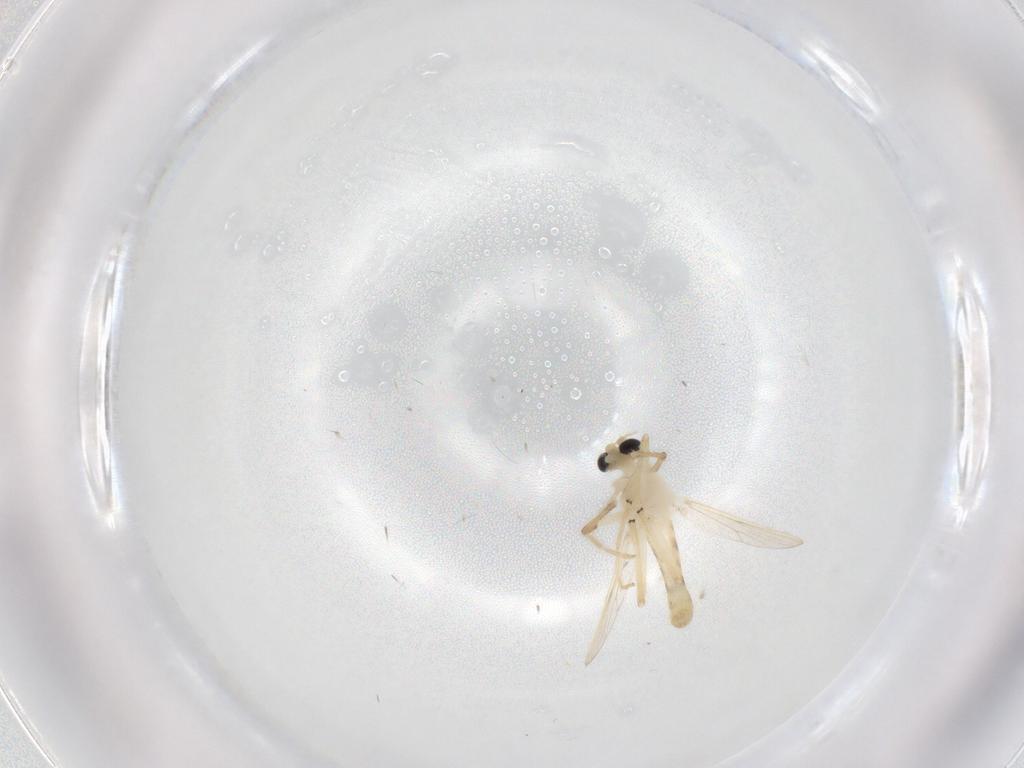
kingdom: Animalia
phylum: Arthropoda
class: Insecta
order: Diptera
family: Chironomidae
